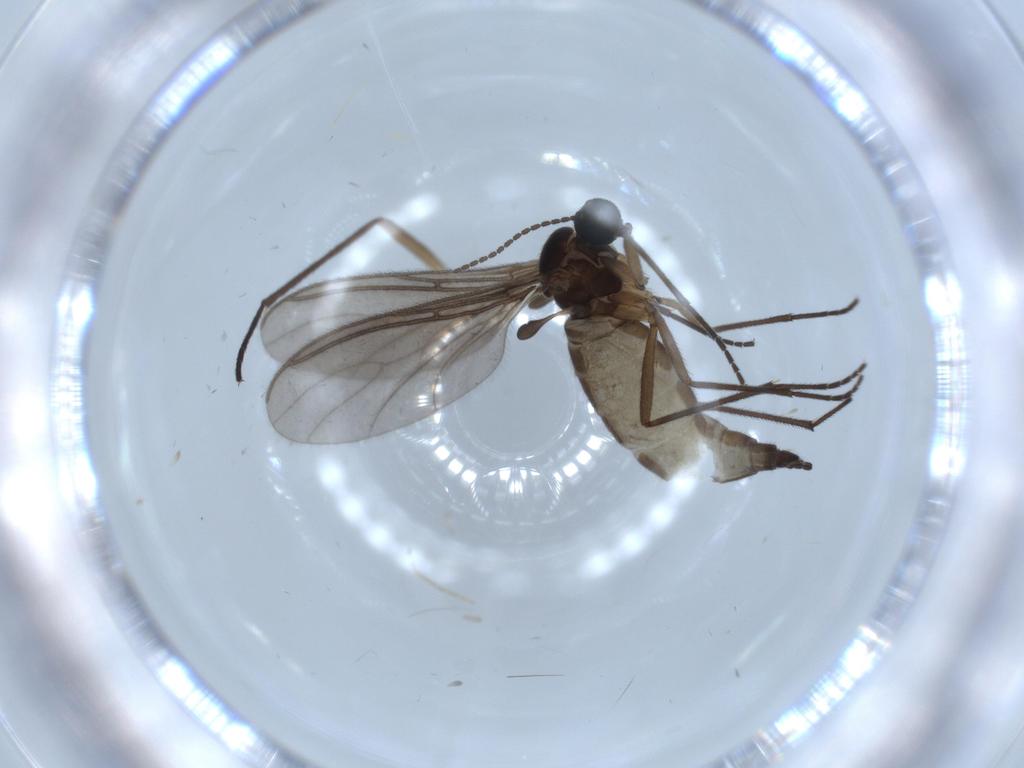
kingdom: Animalia
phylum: Arthropoda
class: Insecta
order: Diptera
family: Sciaridae
